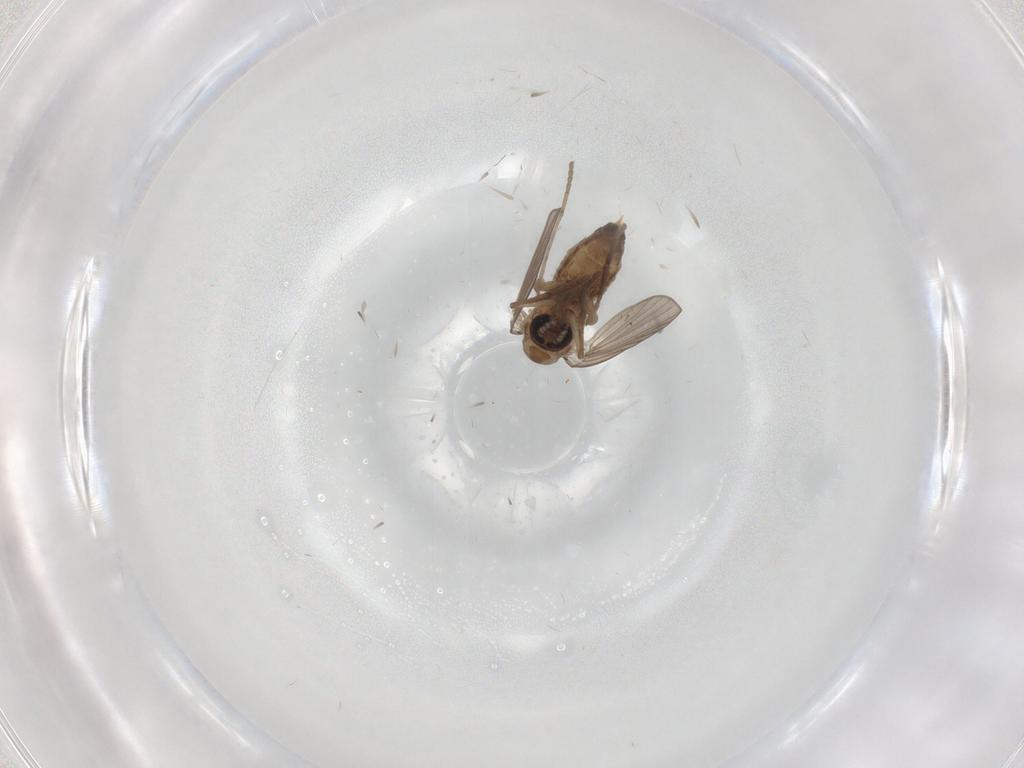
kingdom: Animalia
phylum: Arthropoda
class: Insecta
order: Diptera
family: Psychodidae
